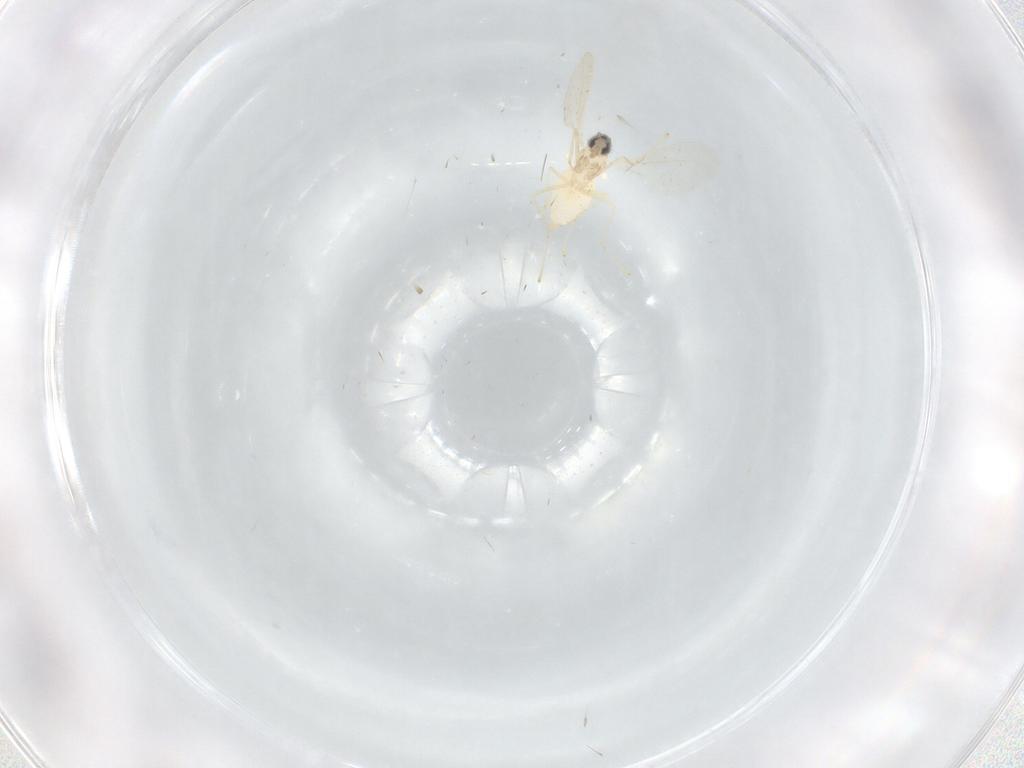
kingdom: Animalia
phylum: Arthropoda
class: Insecta
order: Diptera
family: Cecidomyiidae
